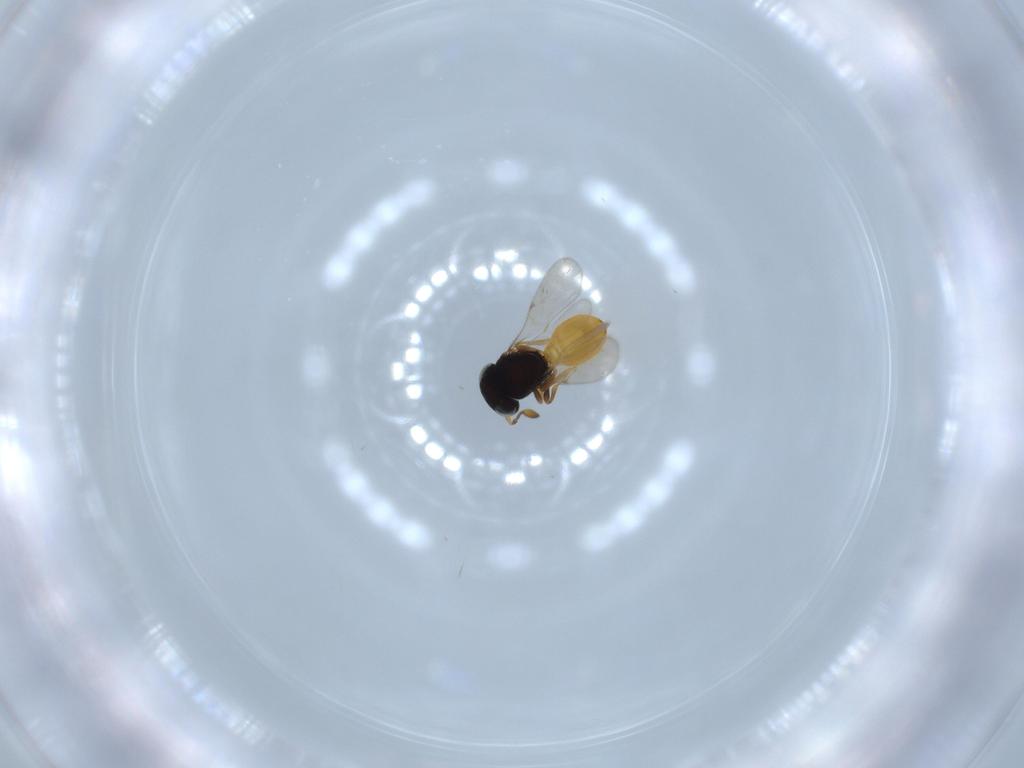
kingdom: Animalia
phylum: Arthropoda
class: Insecta
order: Hymenoptera
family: Scelionidae
